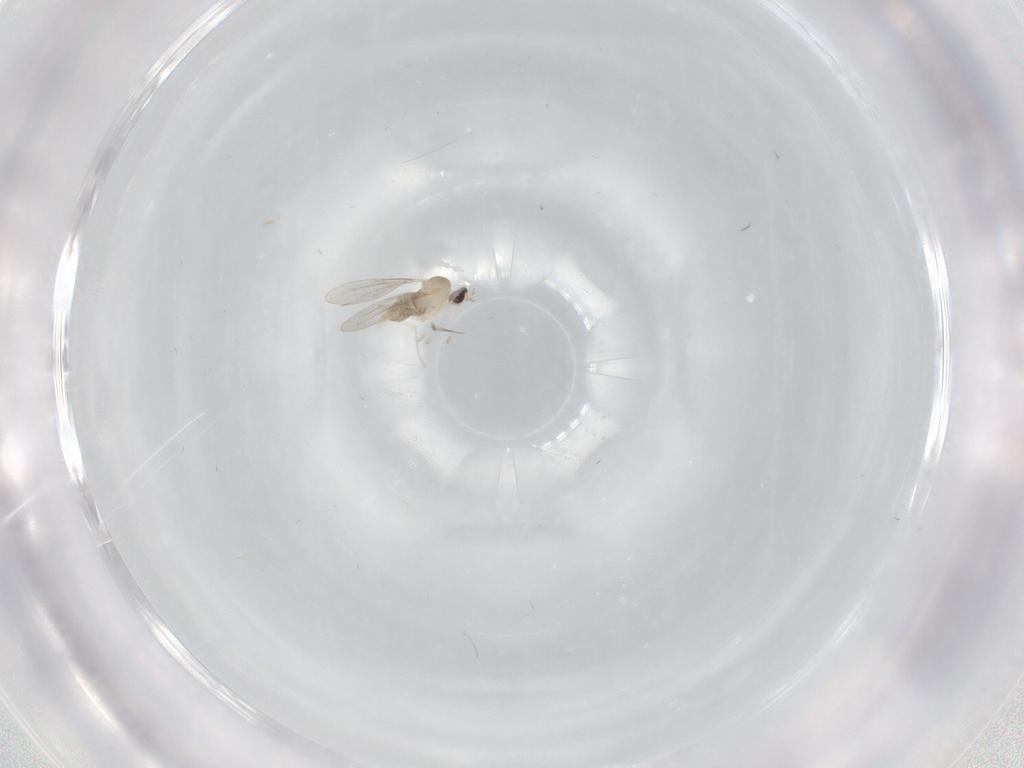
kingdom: Animalia
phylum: Arthropoda
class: Insecta
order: Diptera
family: Cecidomyiidae
